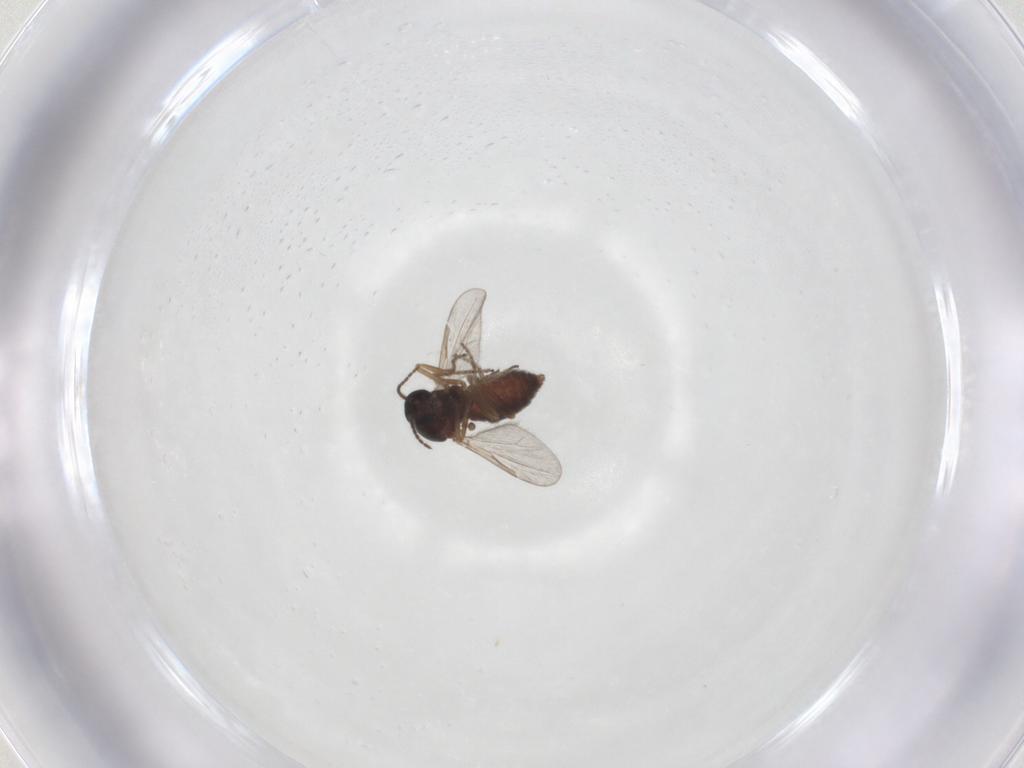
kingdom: Animalia
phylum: Arthropoda
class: Insecta
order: Diptera
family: Ceratopogonidae
